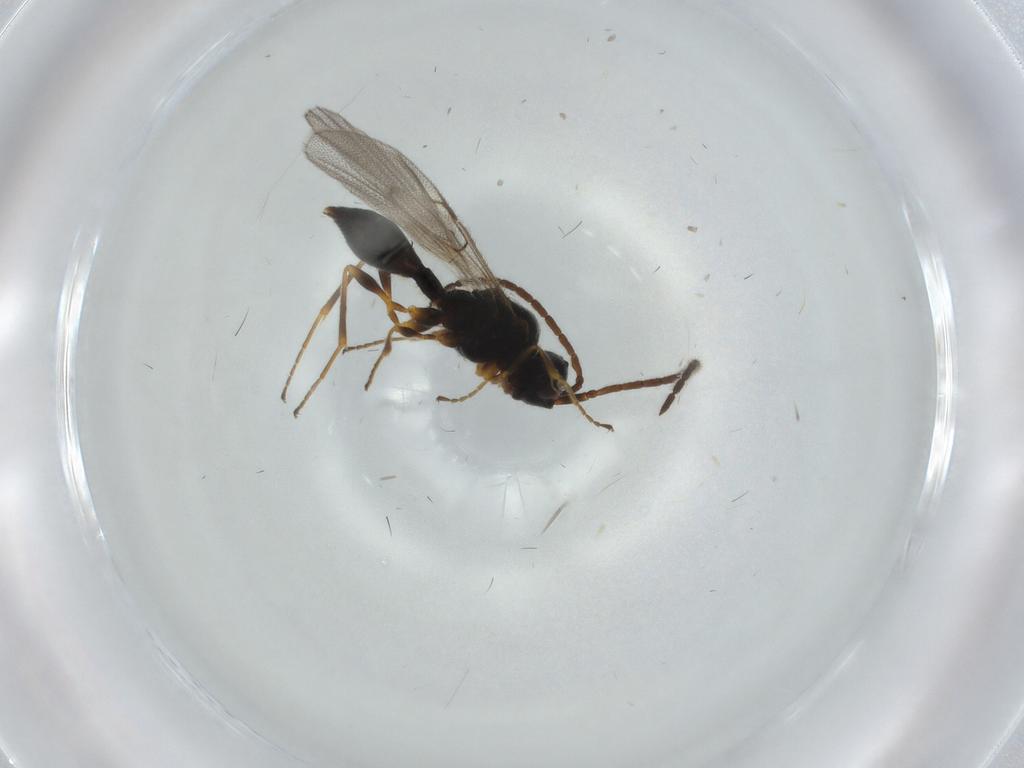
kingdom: Animalia
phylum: Arthropoda
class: Insecta
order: Hymenoptera
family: Diapriidae
